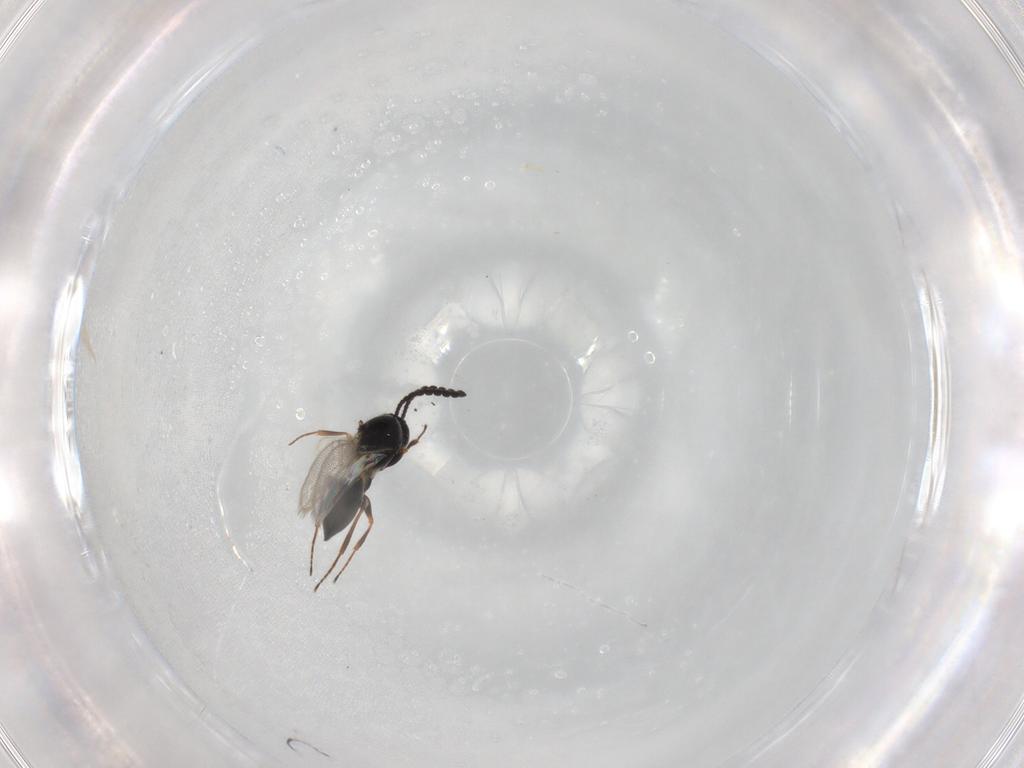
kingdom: Animalia
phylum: Arthropoda
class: Insecta
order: Hymenoptera
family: Figitidae
